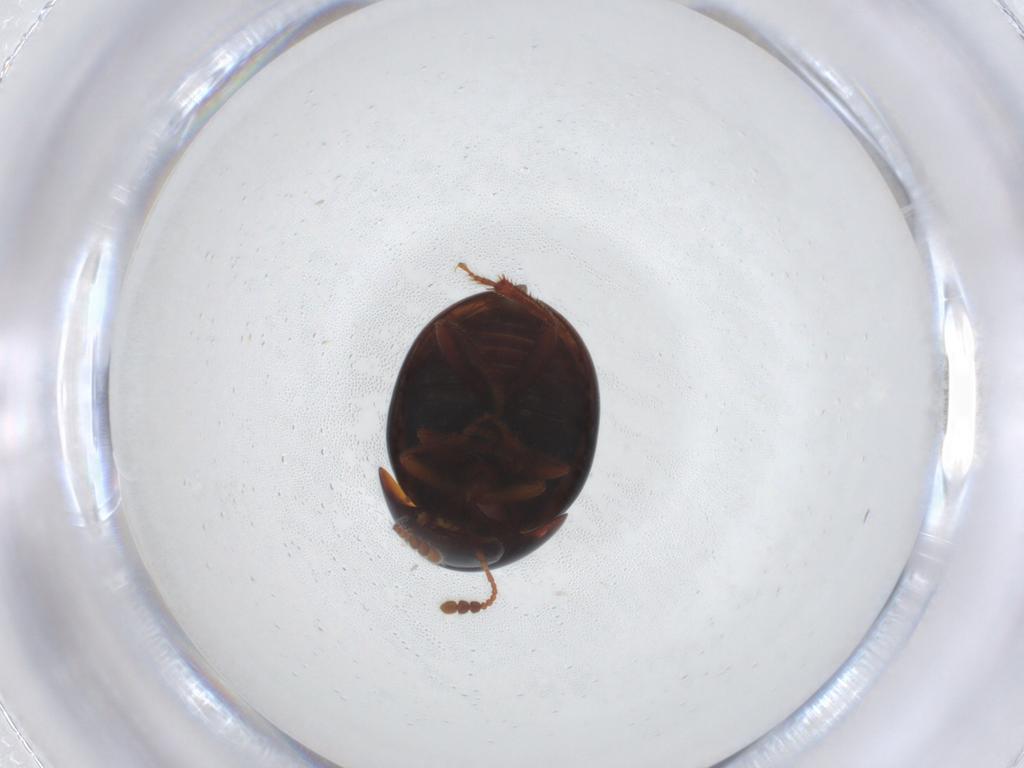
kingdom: Animalia
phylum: Arthropoda
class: Insecta
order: Coleoptera
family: Leiodidae
